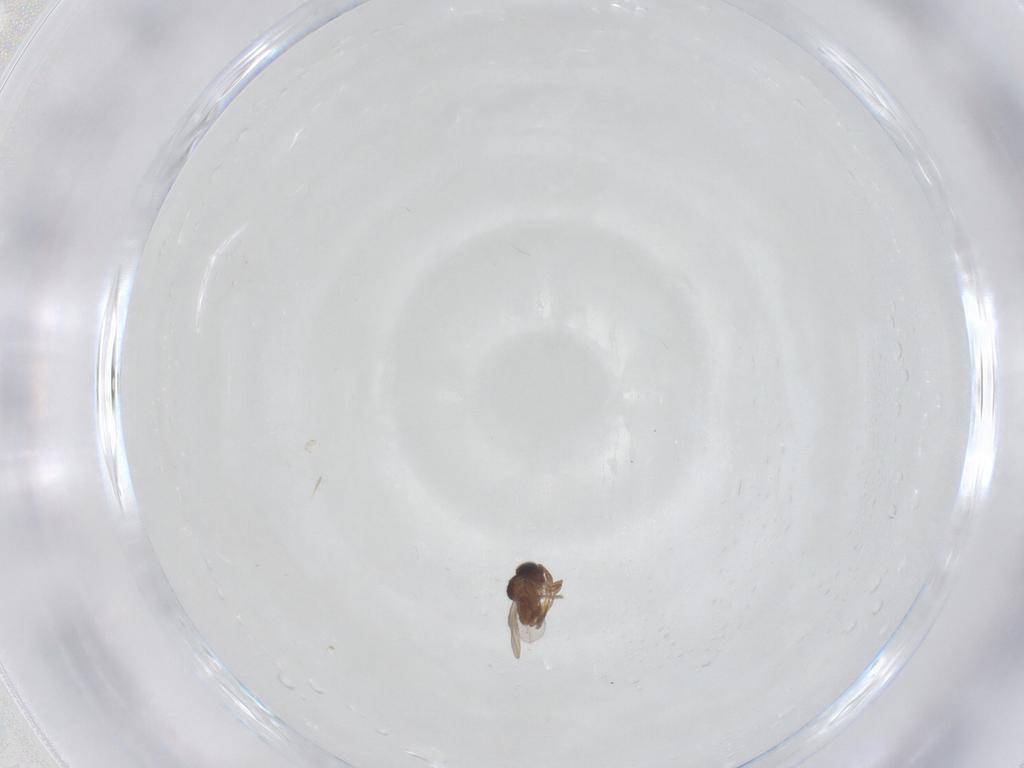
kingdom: Animalia
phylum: Arthropoda
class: Insecta
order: Diptera
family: Chironomidae
